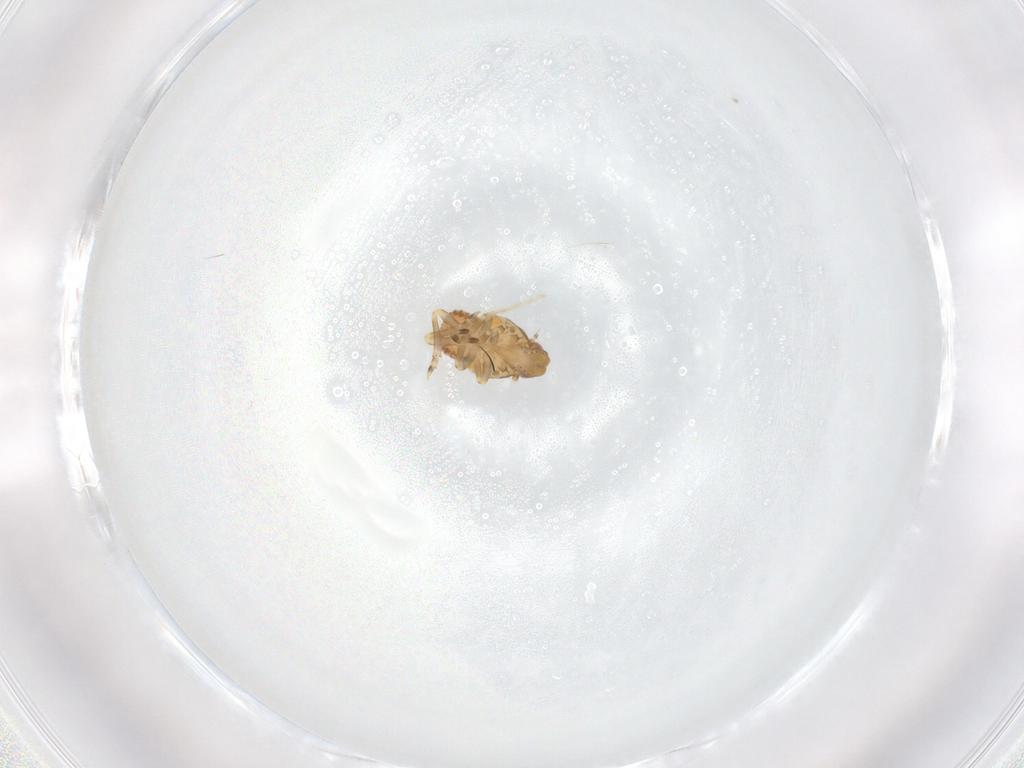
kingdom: Animalia
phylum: Arthropoda
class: Insecta
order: Hemiptera
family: Flatidae
